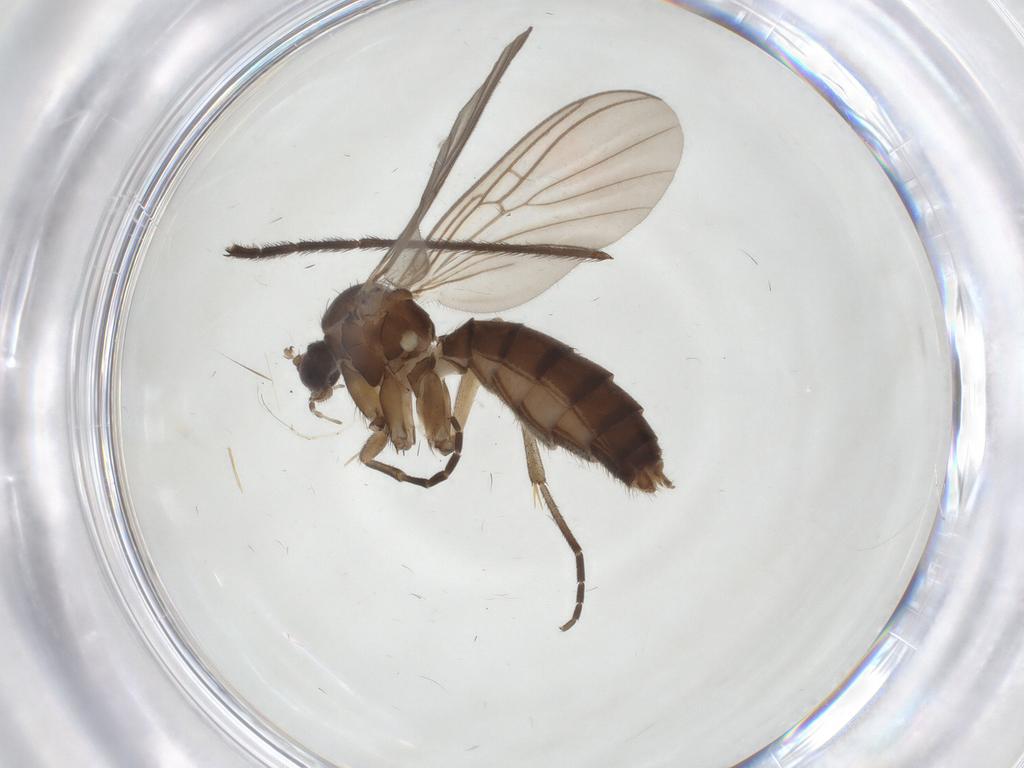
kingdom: Animalia
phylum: Arthropoda
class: Insecta
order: Diptera
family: Mycetophilidae
